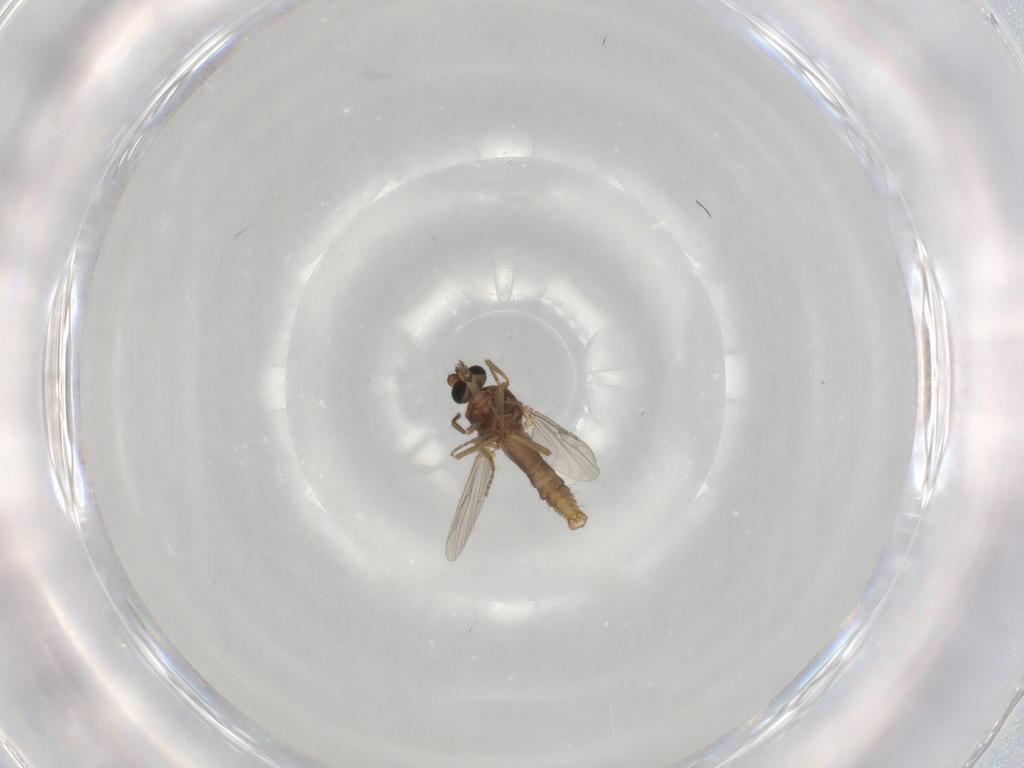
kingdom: Animalia
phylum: Arthropoda
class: Insecta
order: Diptera
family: Ceratopogonidae
